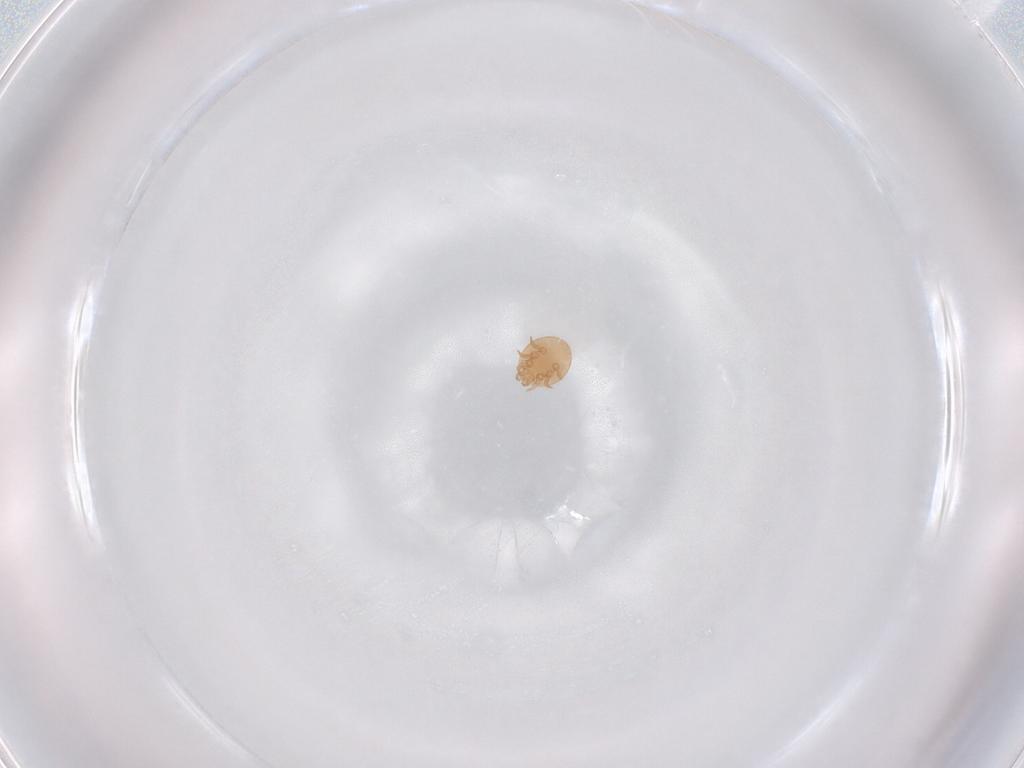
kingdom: Animalia
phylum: Arthropoda
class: Arachnida
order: Mesostigmata
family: Trematuridae
